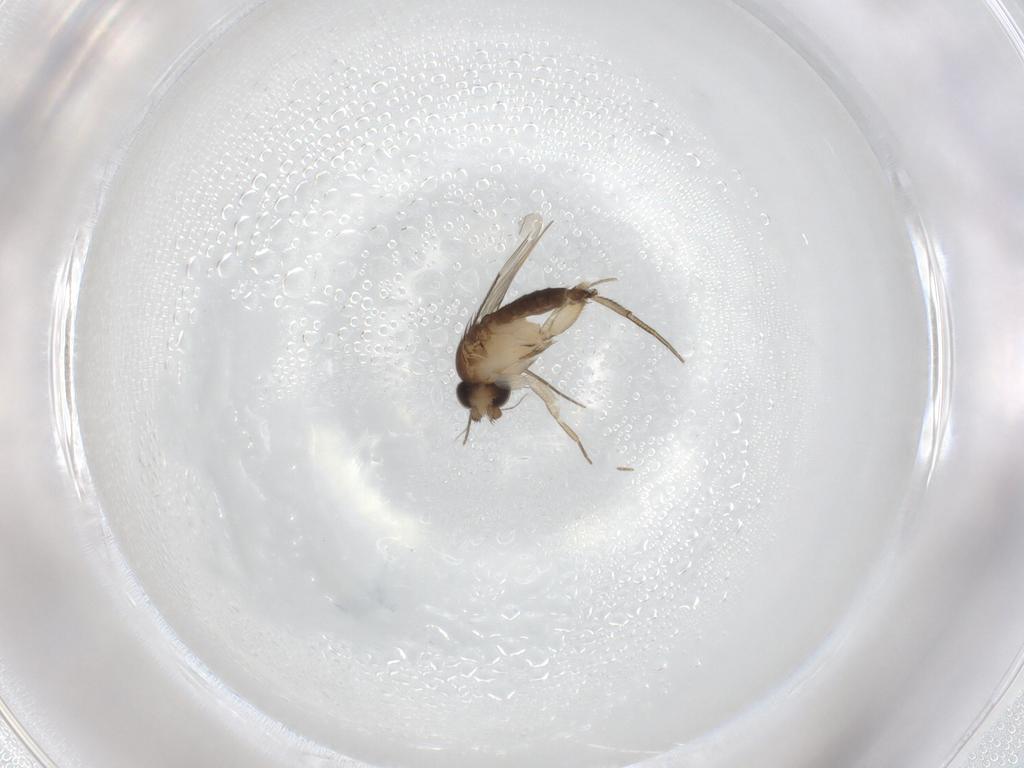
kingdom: Animalia
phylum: Arthropoda
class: Insecta
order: Diptera
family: Phoridae
